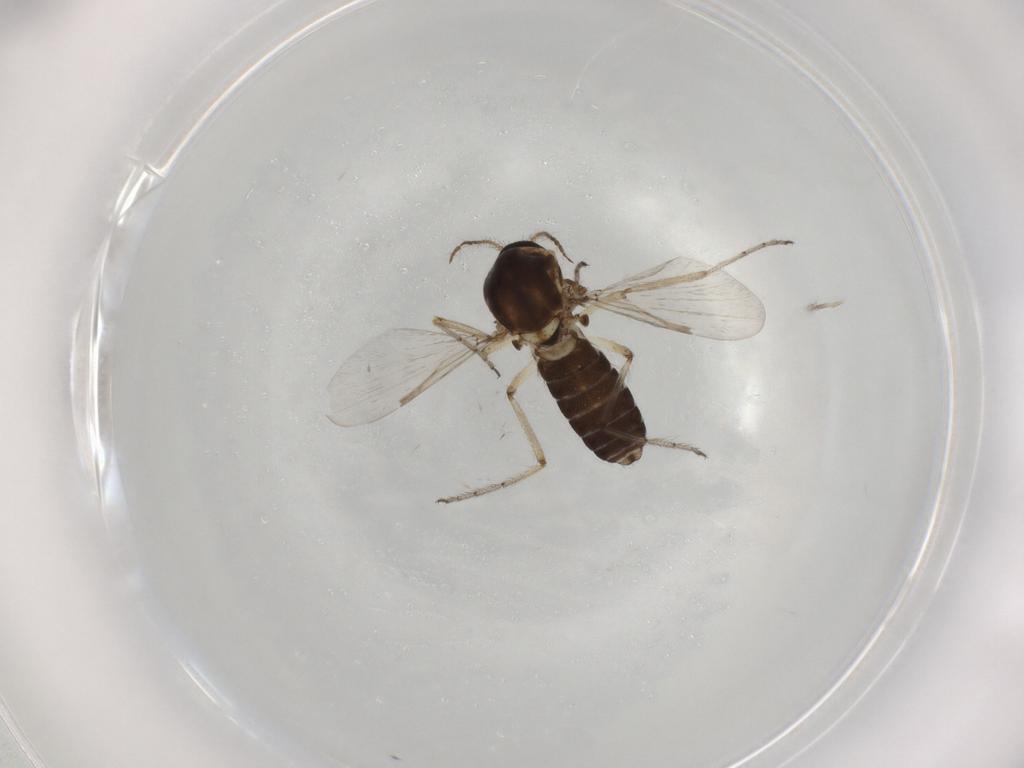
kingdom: Animalia
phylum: Arthropoda
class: Insecta
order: Diptera
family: Ceratopogonidae
